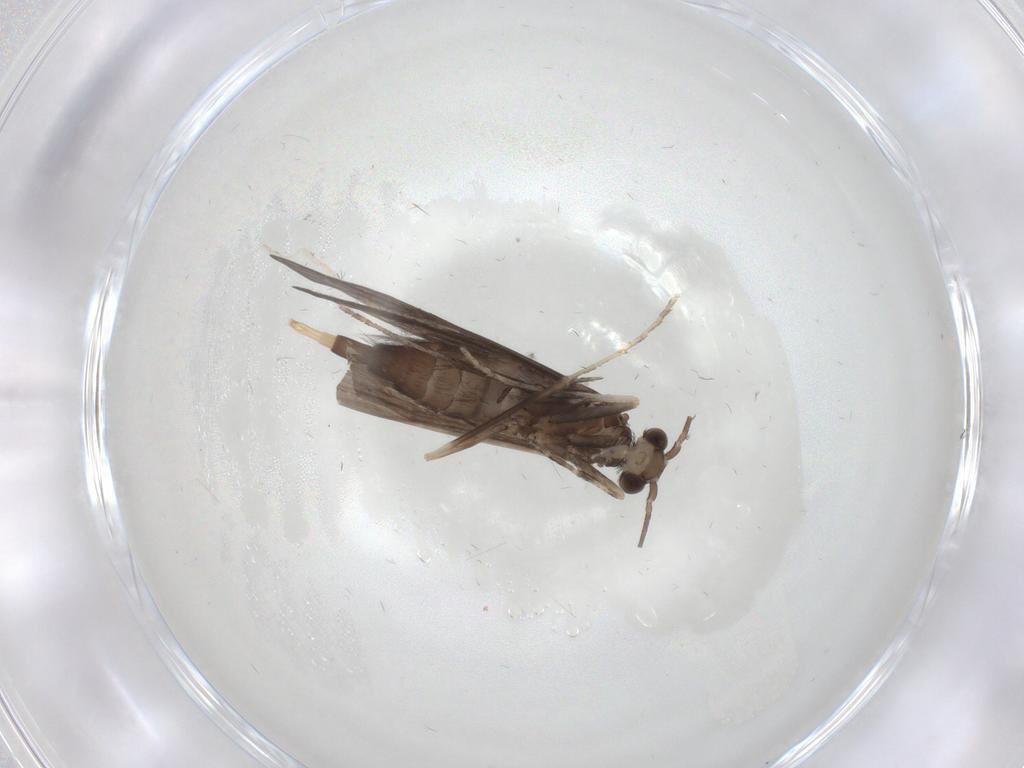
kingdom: Animalia
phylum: Arthropoda
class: Insecta
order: Trichoptera
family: Xiphocentronidae
